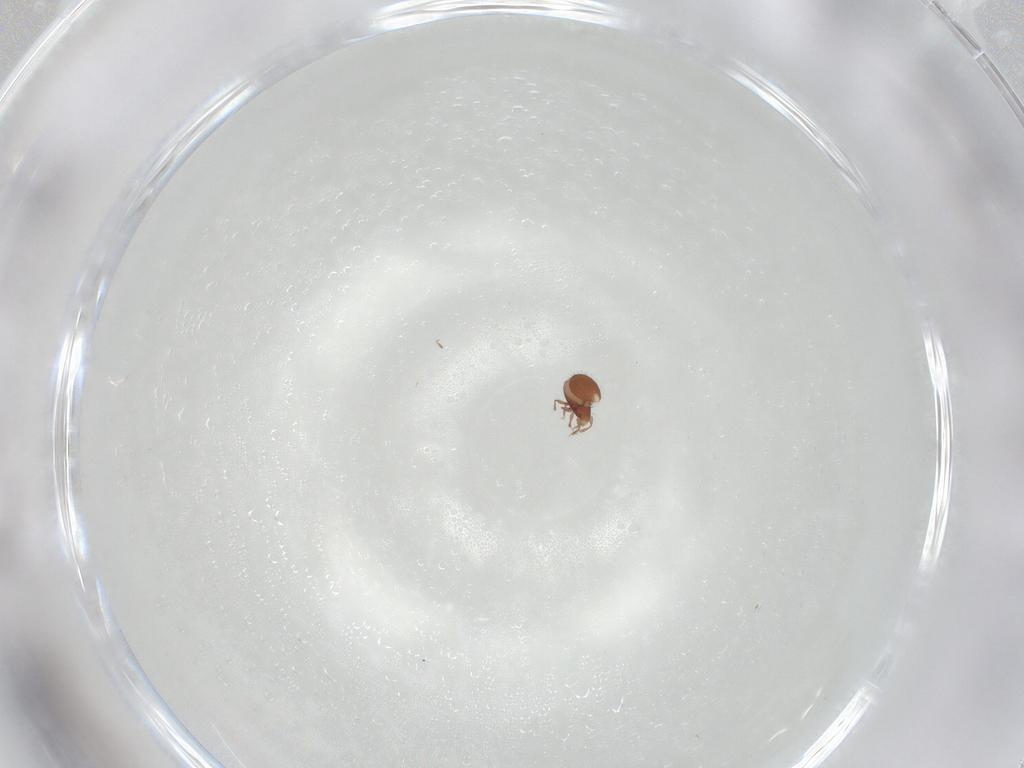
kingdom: Animalia
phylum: Arthropoda
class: Arachnida
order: Sarcoptiformes
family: Oribatulidae
